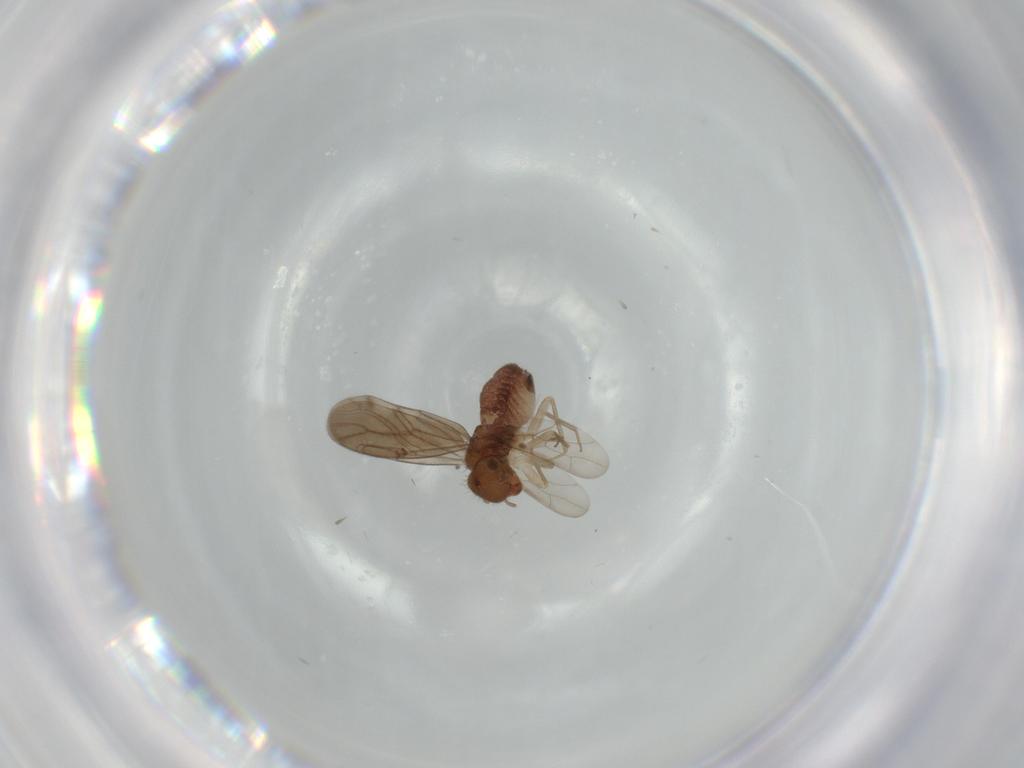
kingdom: Animalia
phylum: Arthropoda
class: Insecta
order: Psocodea
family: Ectopsocidae
